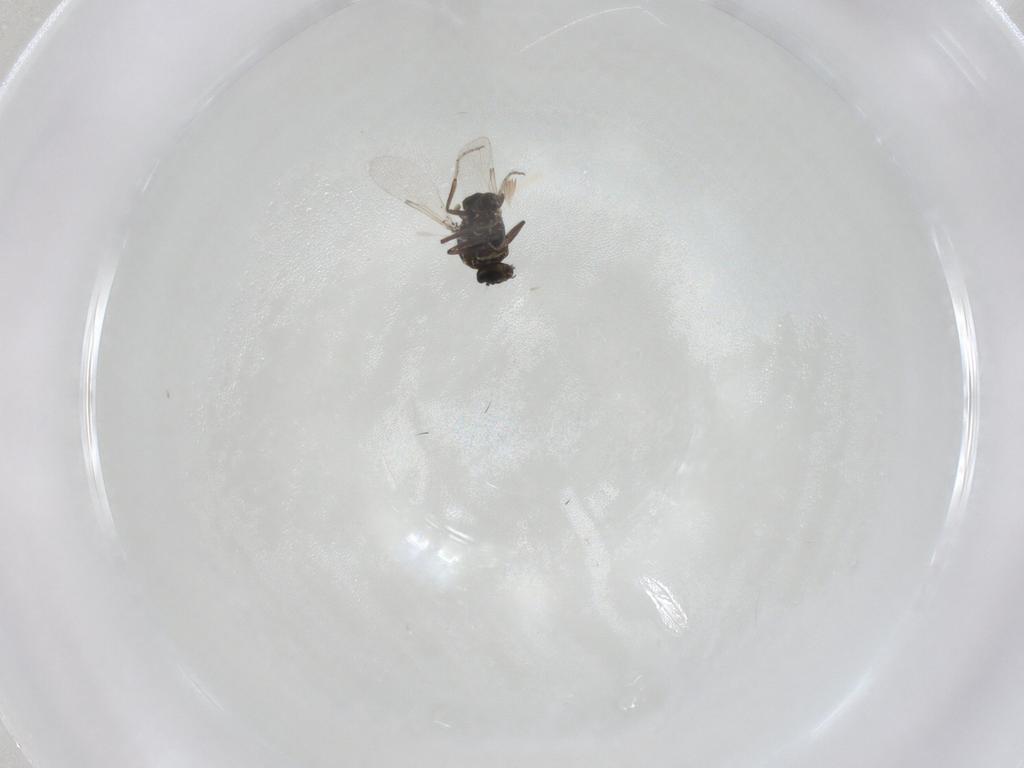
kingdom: Animalia
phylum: Arthropoda
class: Insecta
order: Diptera
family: Ceratopogonidae
